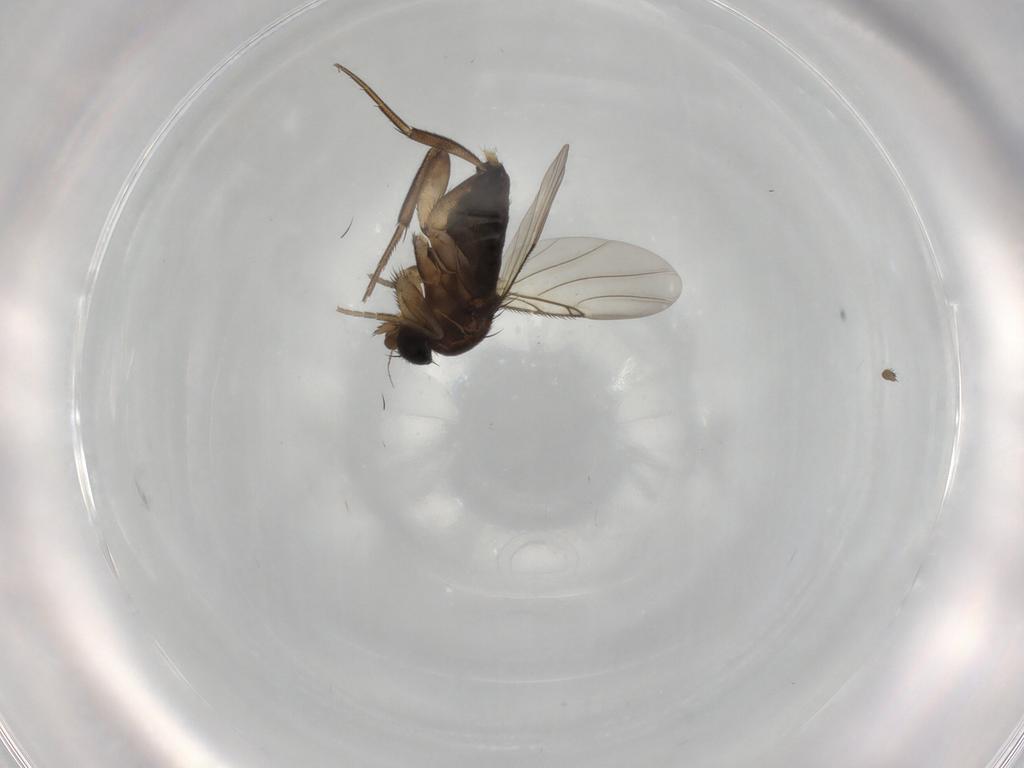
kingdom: Animalia
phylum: Arthropoda
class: Insecta
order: Diptera
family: Phoridae
